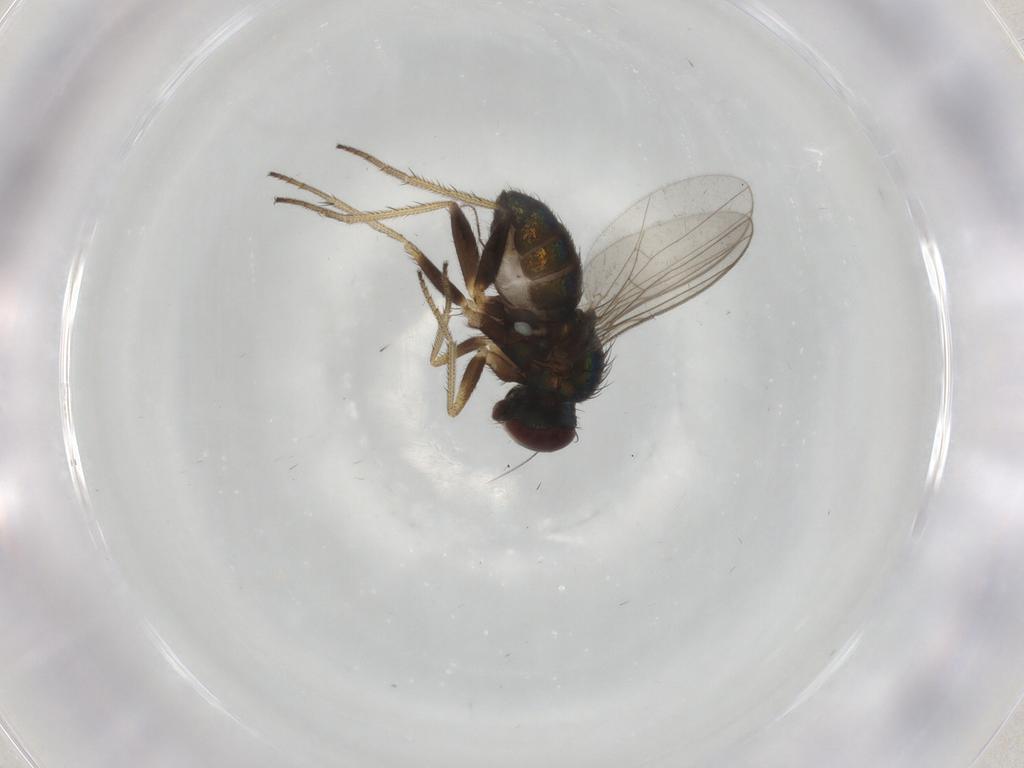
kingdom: Animalia
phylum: Arthropoda
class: Insecta
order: Diptera
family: Ceratopogonidae
